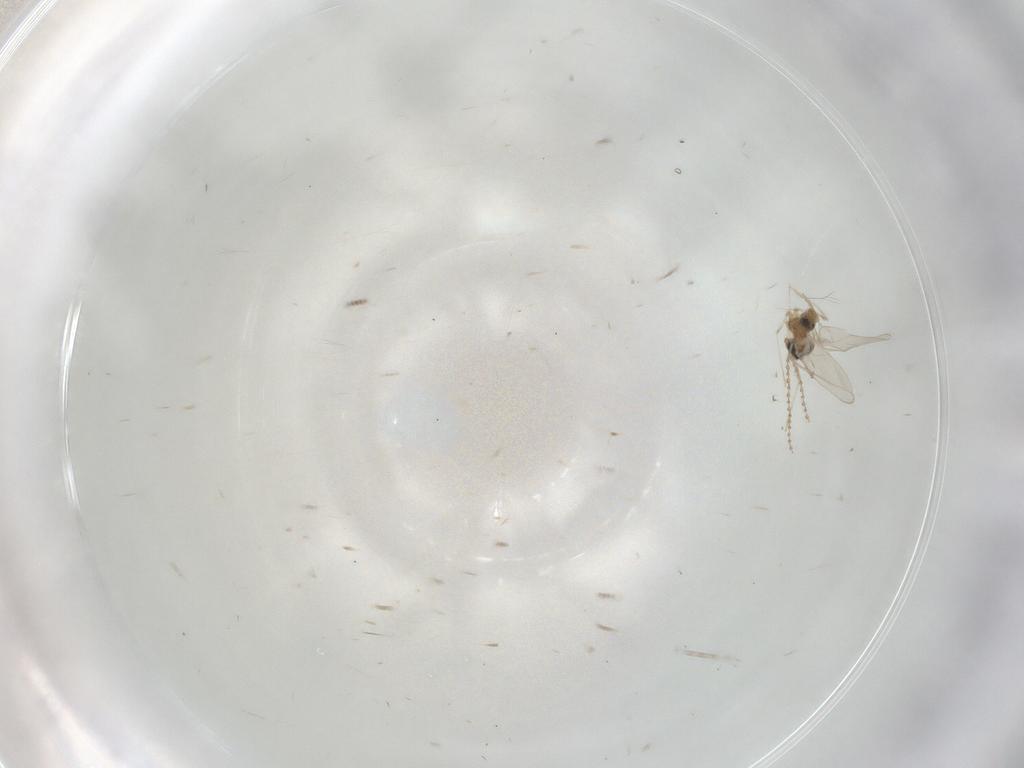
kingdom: Animalia
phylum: Arthropoda
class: Insecta
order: Diptera
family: Cecidomyiidae
